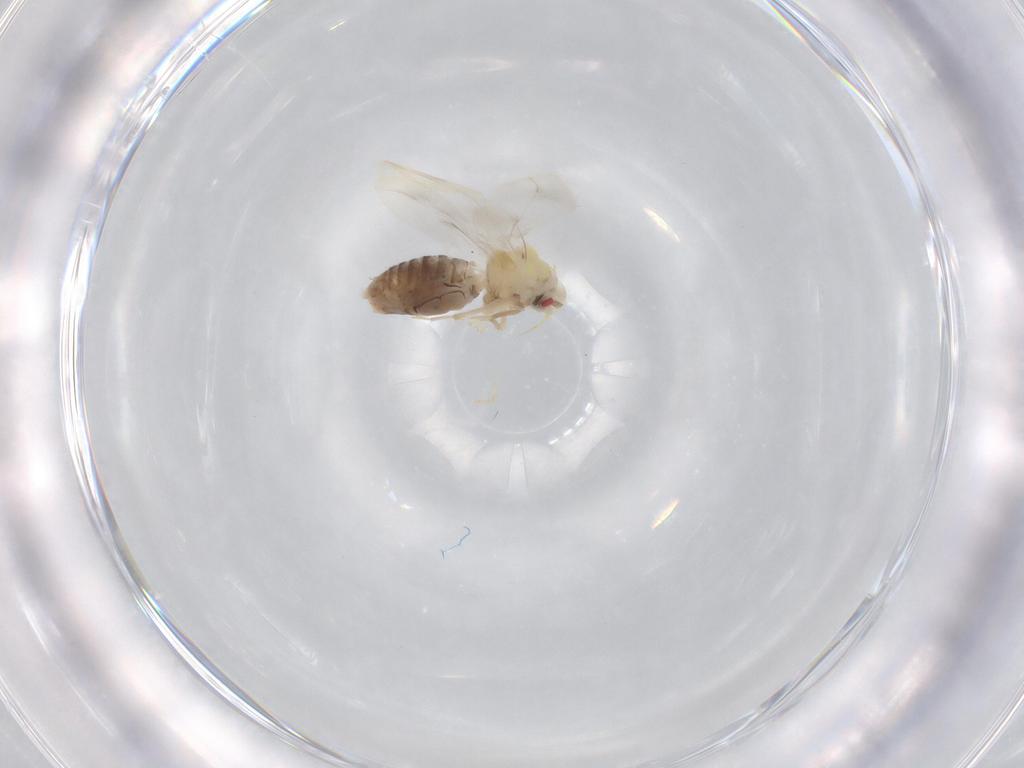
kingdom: Animalia
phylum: Arthropoda
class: Insecta
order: Hemiptera
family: Aleyrodidae
